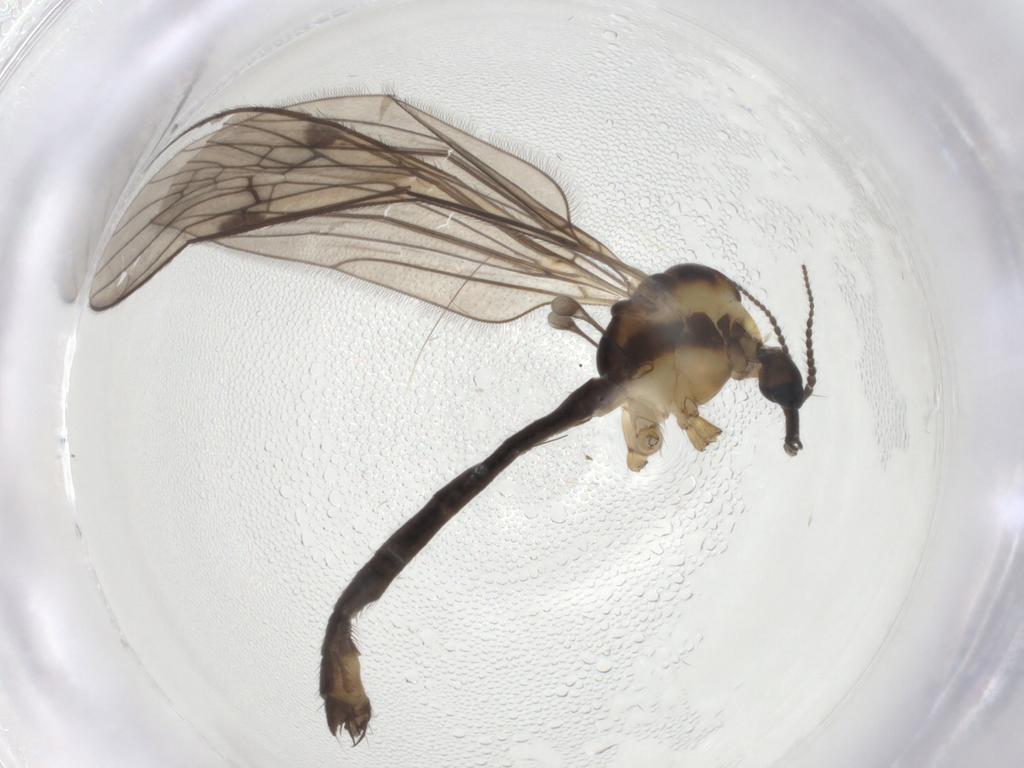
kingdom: Animalia
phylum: Arthropoda
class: Insecta
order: Diptera
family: Limoniidae
